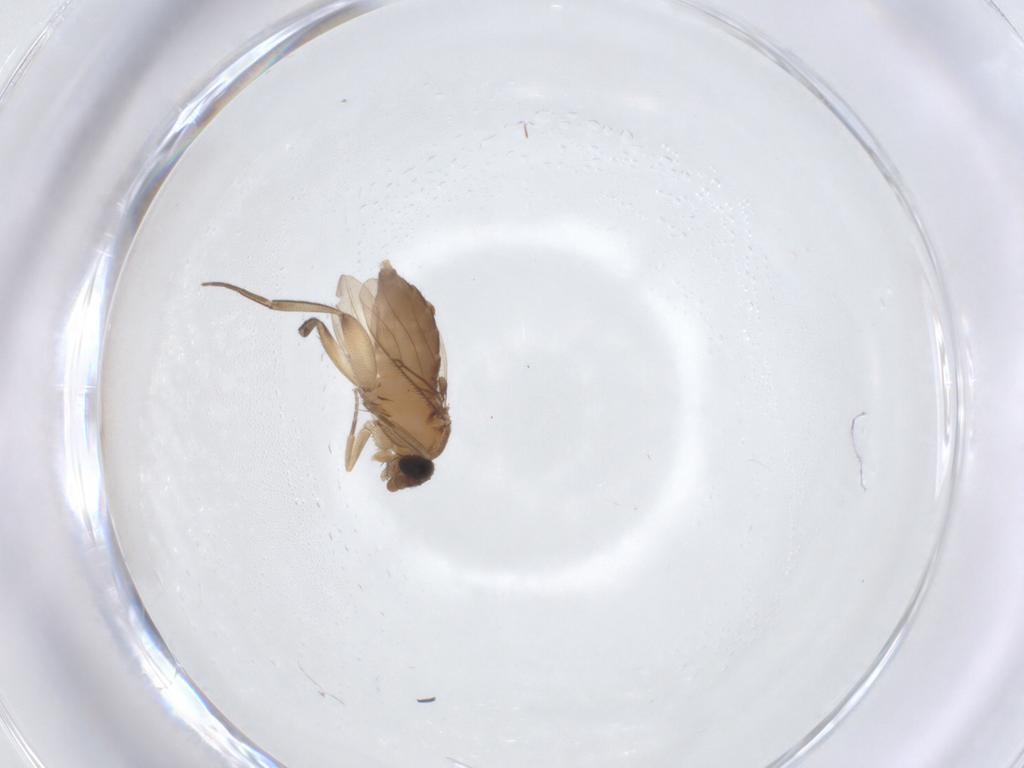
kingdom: Animalia
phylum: Arthropoda
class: Insecta
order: Diptera
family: Phoridae
